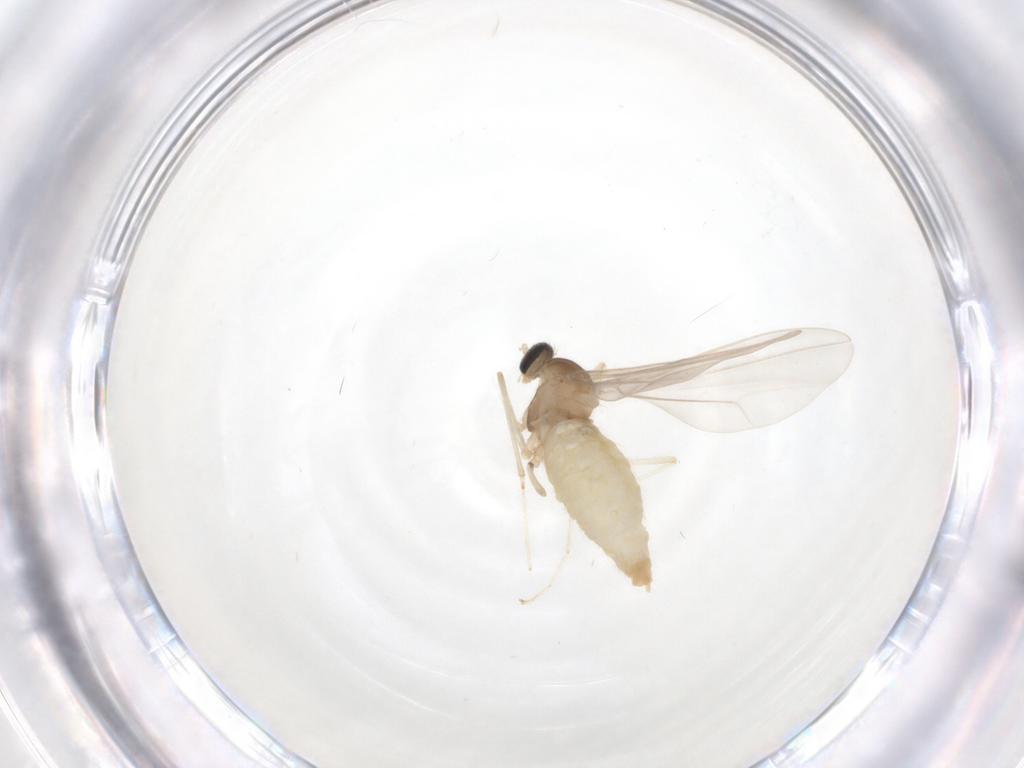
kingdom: Animalia
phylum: Arthropoda
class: Insecta
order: Diptera
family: Cecidomyiidae
